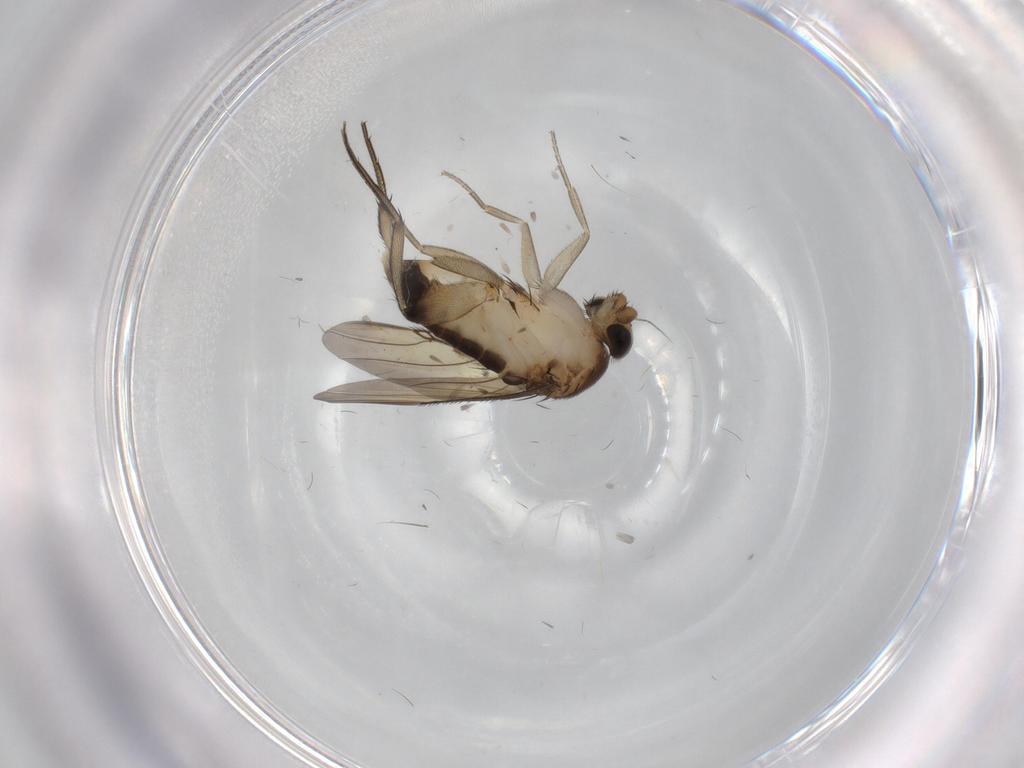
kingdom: Animalia
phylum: Arthropoda
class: Insecta
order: Diptera
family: Phoridae
